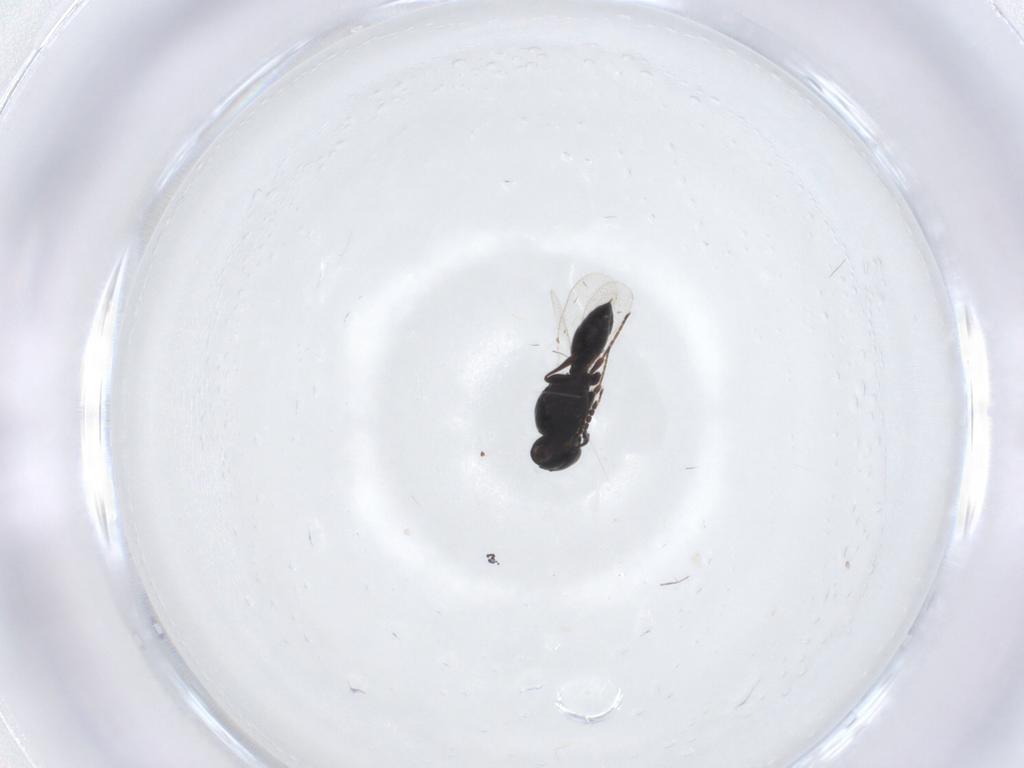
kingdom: Animalia
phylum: Arthropoda
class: Insecta
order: Hymenoptera
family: Platygastridae
